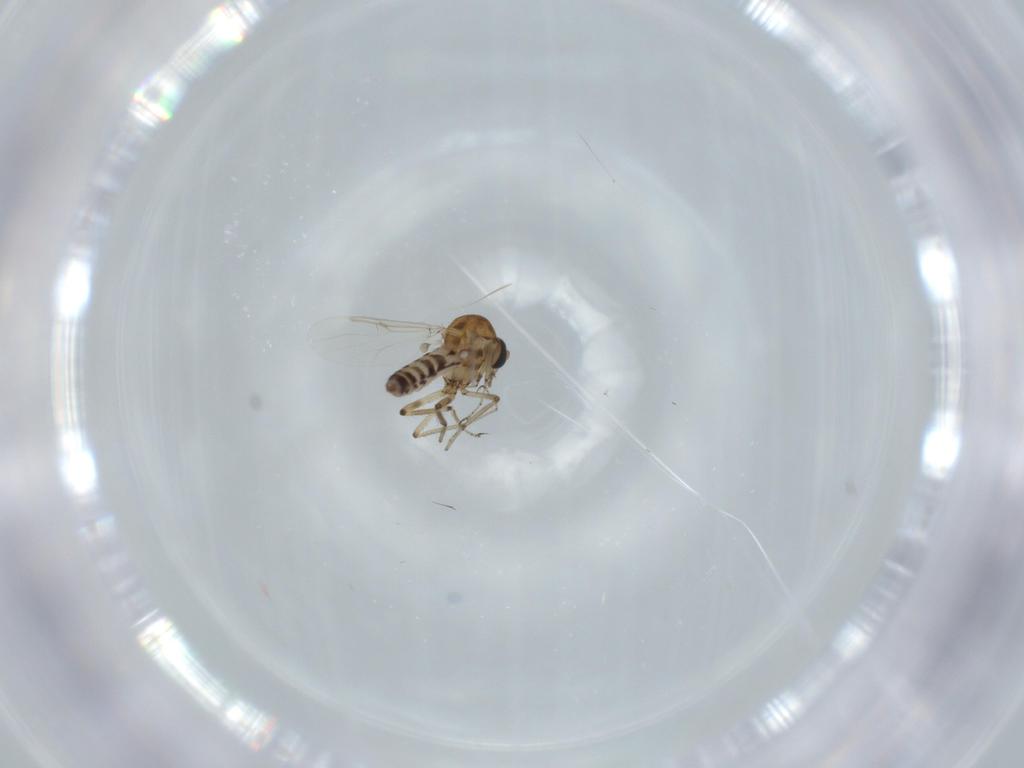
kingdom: Animalia
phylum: Arthropoda
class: Insecta
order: Diptera
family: Cecidomyiidae
